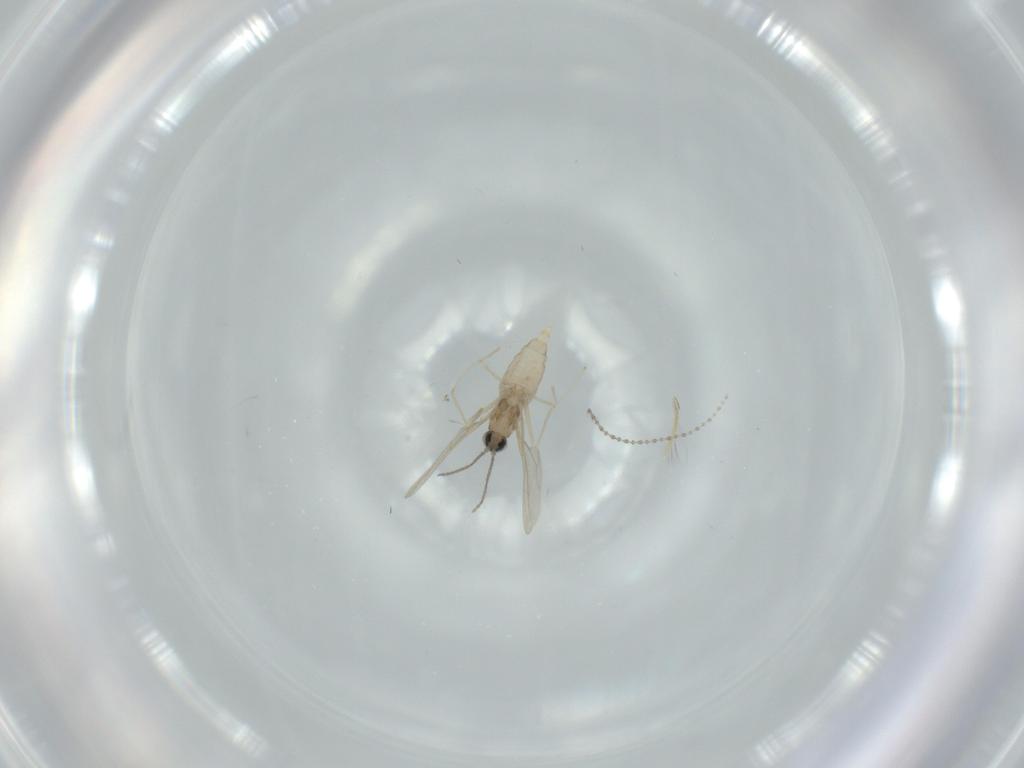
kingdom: Animalia
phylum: Arthropoda
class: Insecta
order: Diptera
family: Cecidomyiidae
